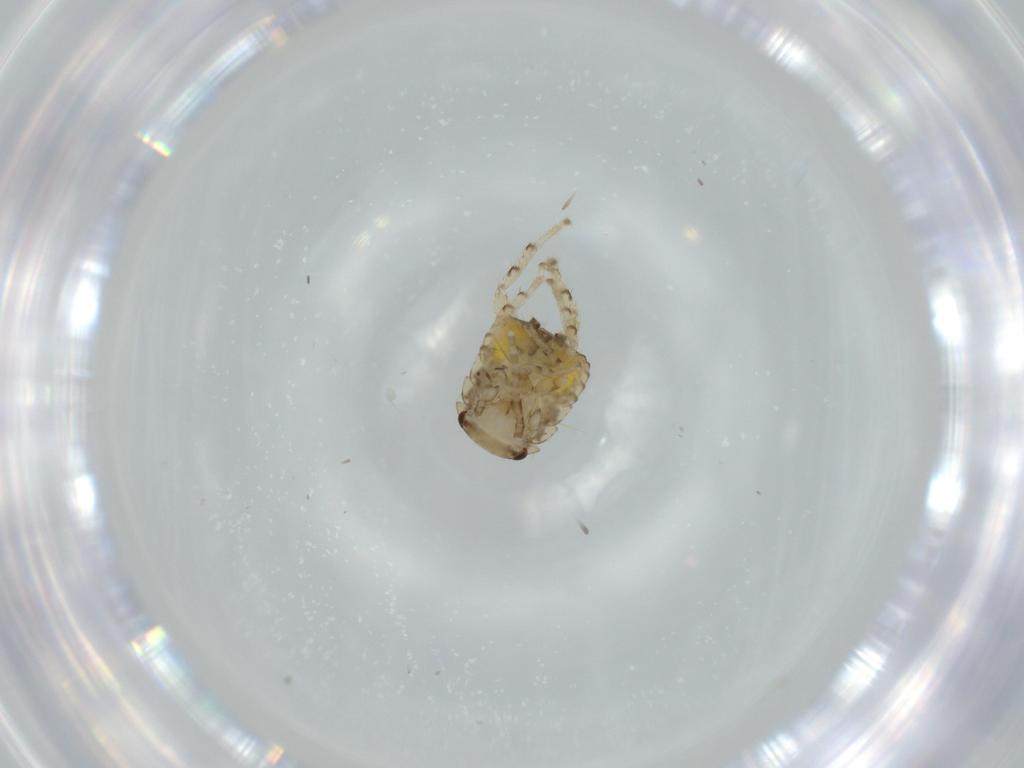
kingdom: Animalia
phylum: Arthropoda
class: Insecta
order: Blattodea
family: Ectobiidae
